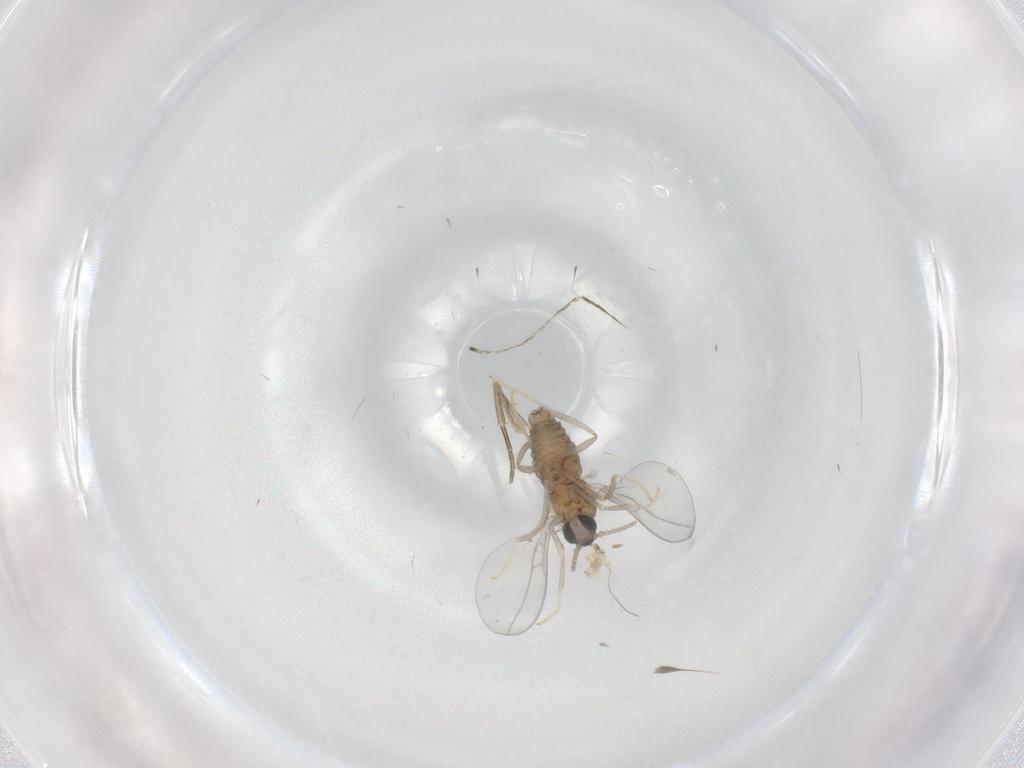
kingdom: Animalia
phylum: Arthropoda
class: Insecta
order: Diptera
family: Cecidomyiidae
